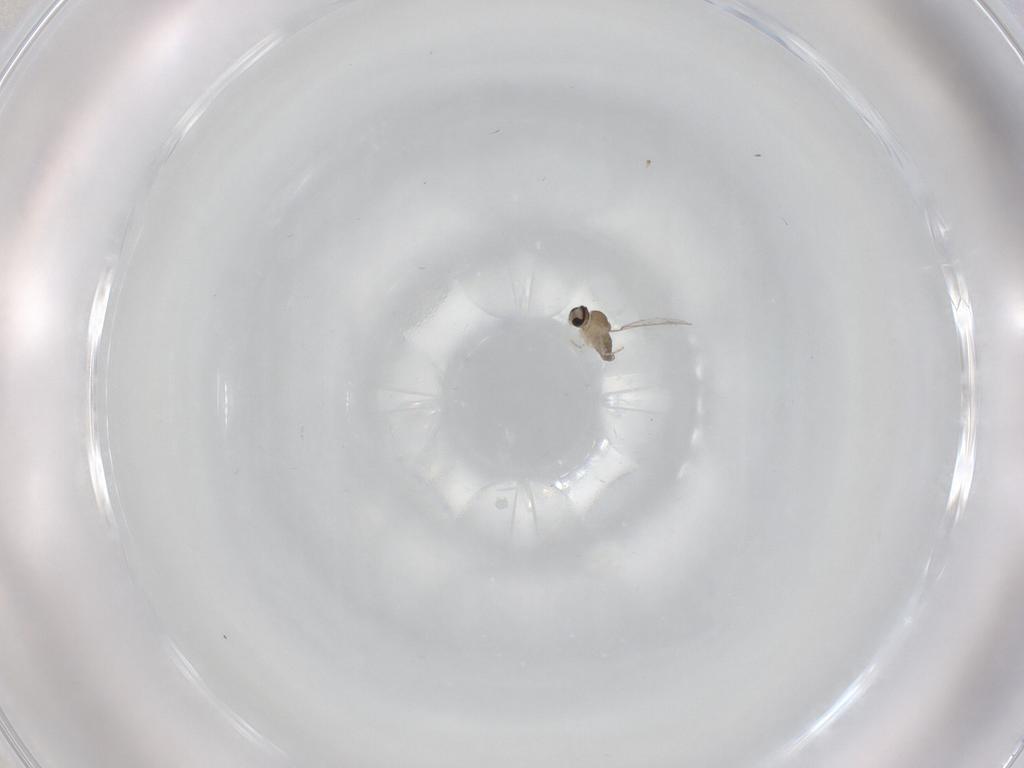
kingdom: Animalia
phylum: Arthropoda
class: Insecta
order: Diptera
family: Cecidomyiidae
